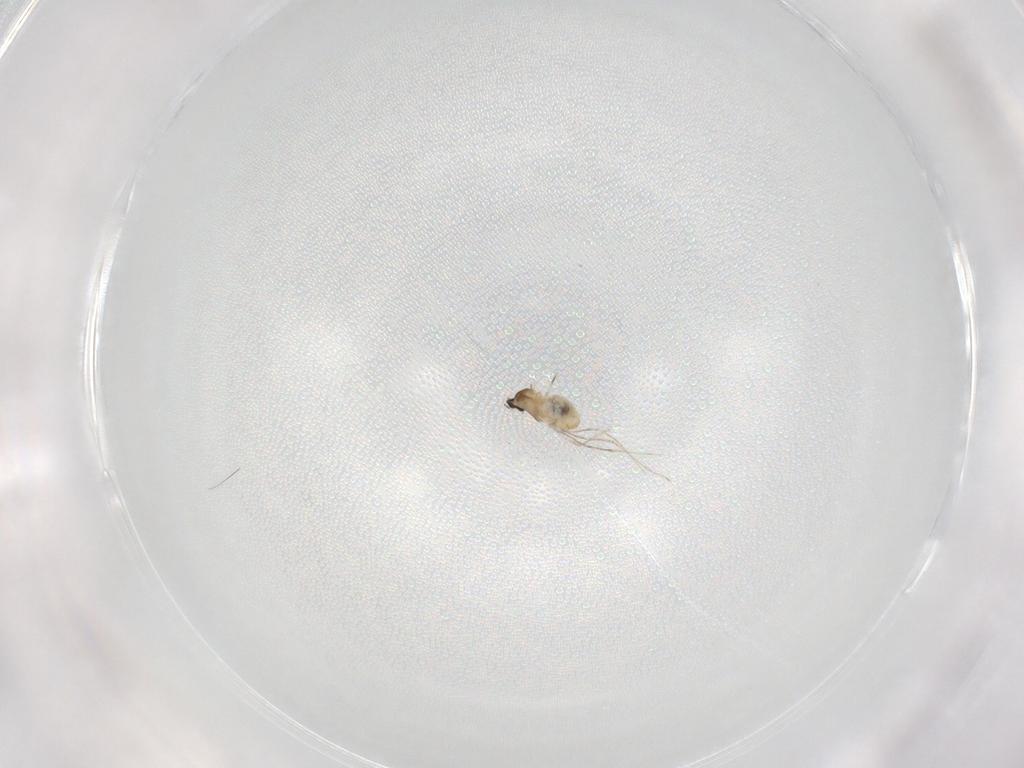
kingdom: Animalia
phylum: Arthropoda
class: Insecta
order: Diptera
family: Cecidomyiidae
